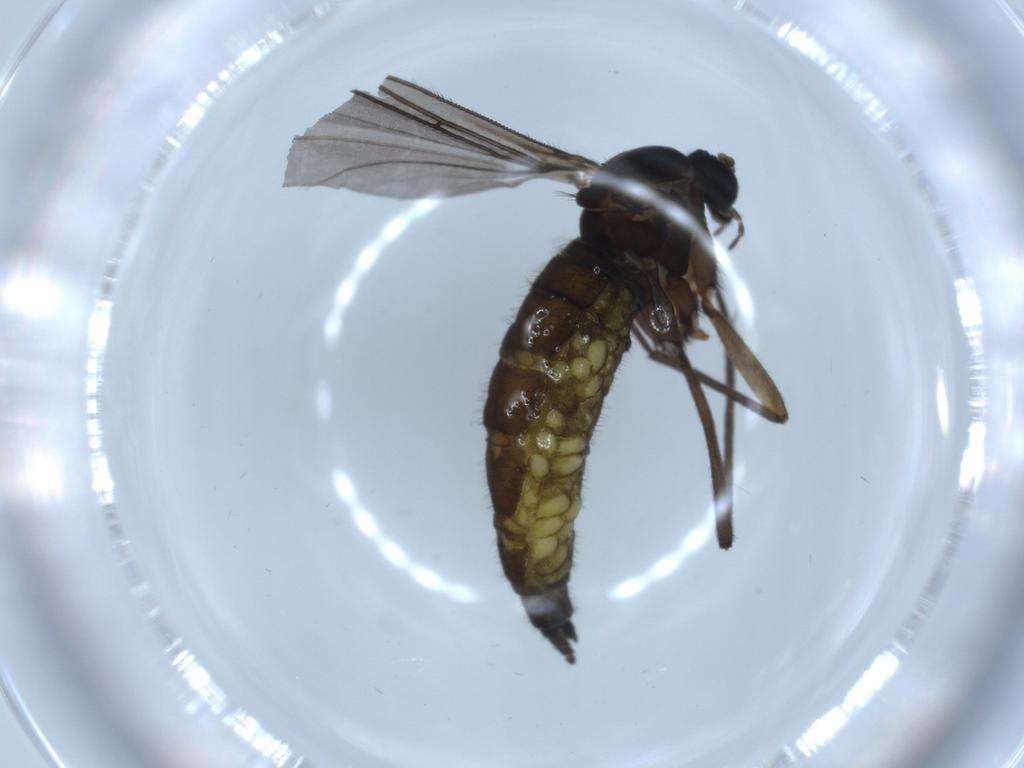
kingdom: Animalia
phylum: Arthropoda
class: Insecta
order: Diptera
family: Sciaridae
